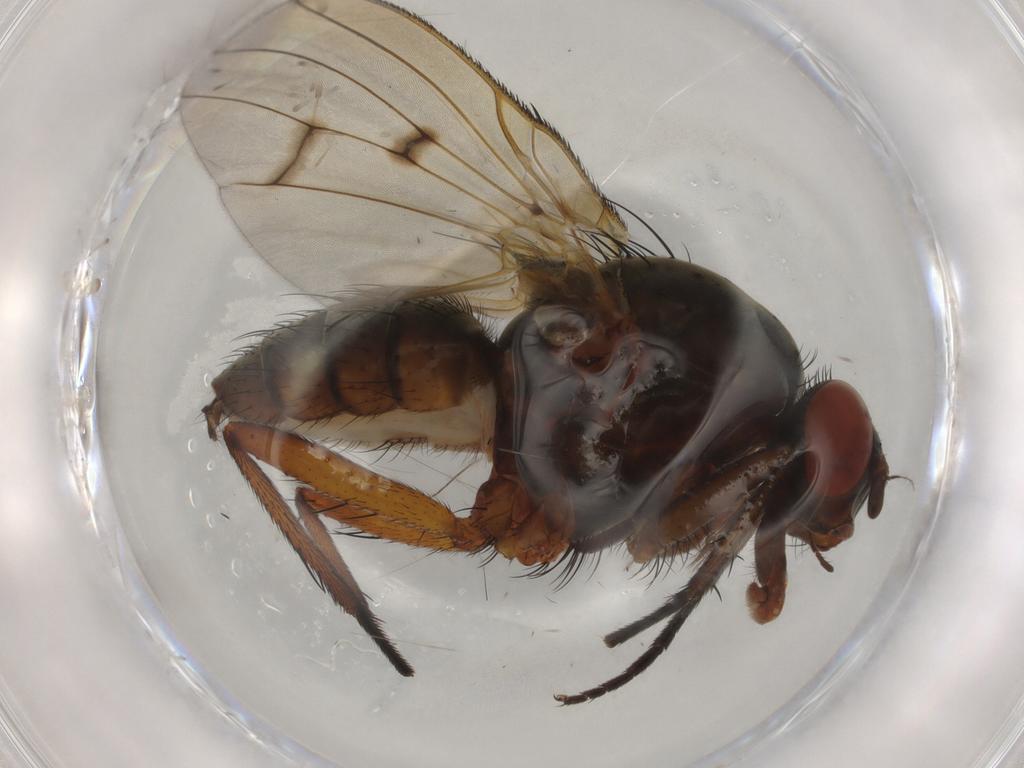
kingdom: Animalia
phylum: Arthropoda
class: Insecta
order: Diptera
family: Anthomyiidae
